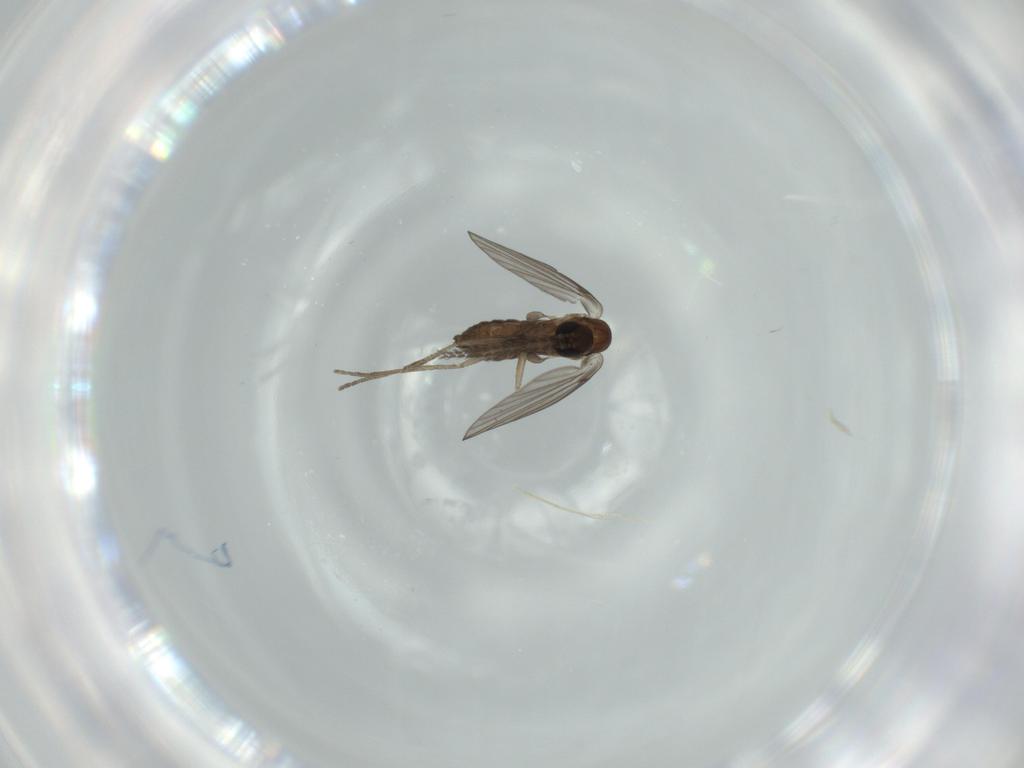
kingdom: Animalia
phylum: Arthropoda
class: Insecta
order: Diptera
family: Psychodidae
